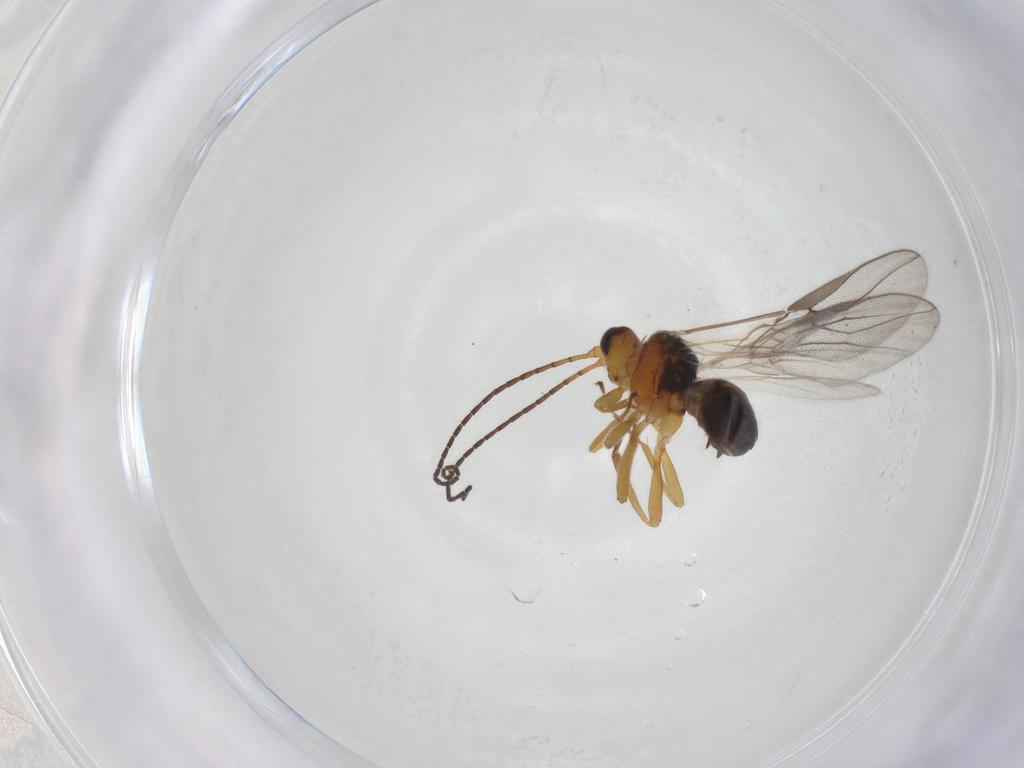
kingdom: Animalia
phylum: Arthropoda
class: Insecta
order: Hymenoptera
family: Braconidae
